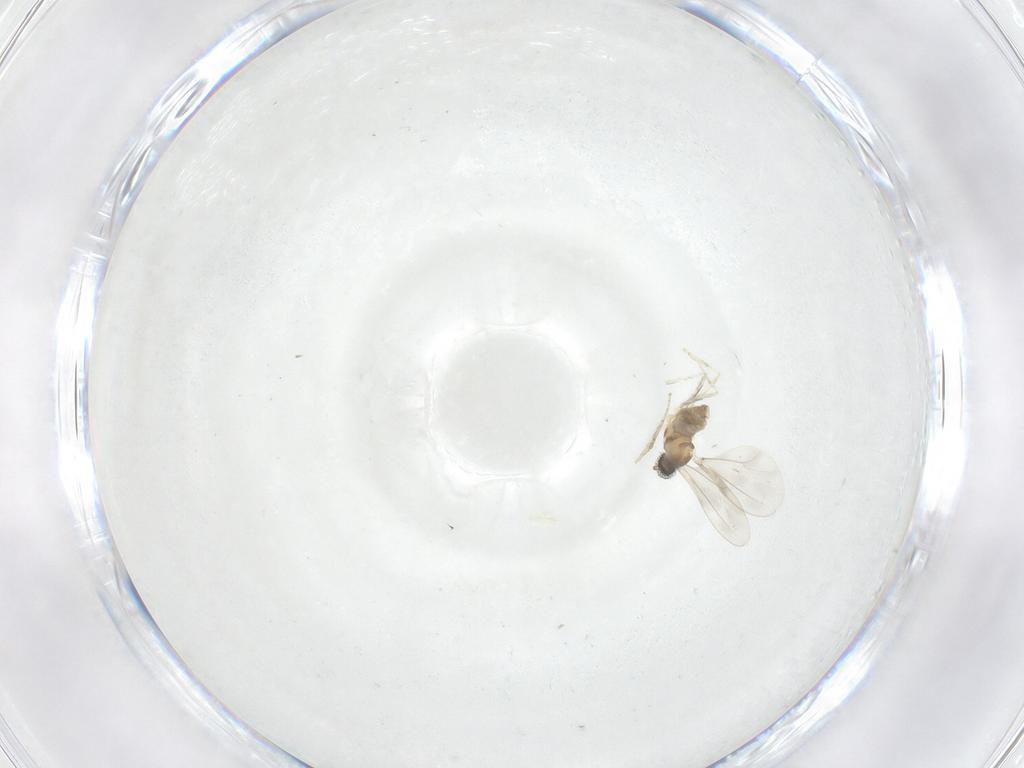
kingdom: Animalia
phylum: Arthropoda
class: Insecta
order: Diptera
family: Cecidomyiidae
